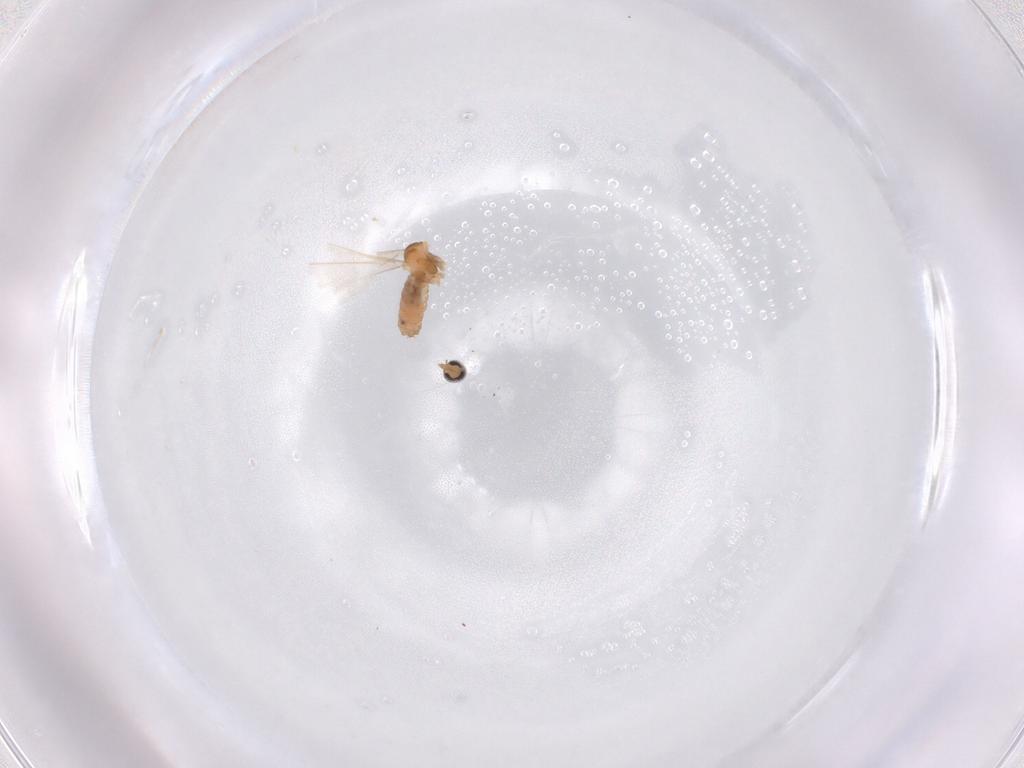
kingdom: Animalia
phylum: Arthropoda
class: Insecta
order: Diptera
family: Cecidomyiidae
